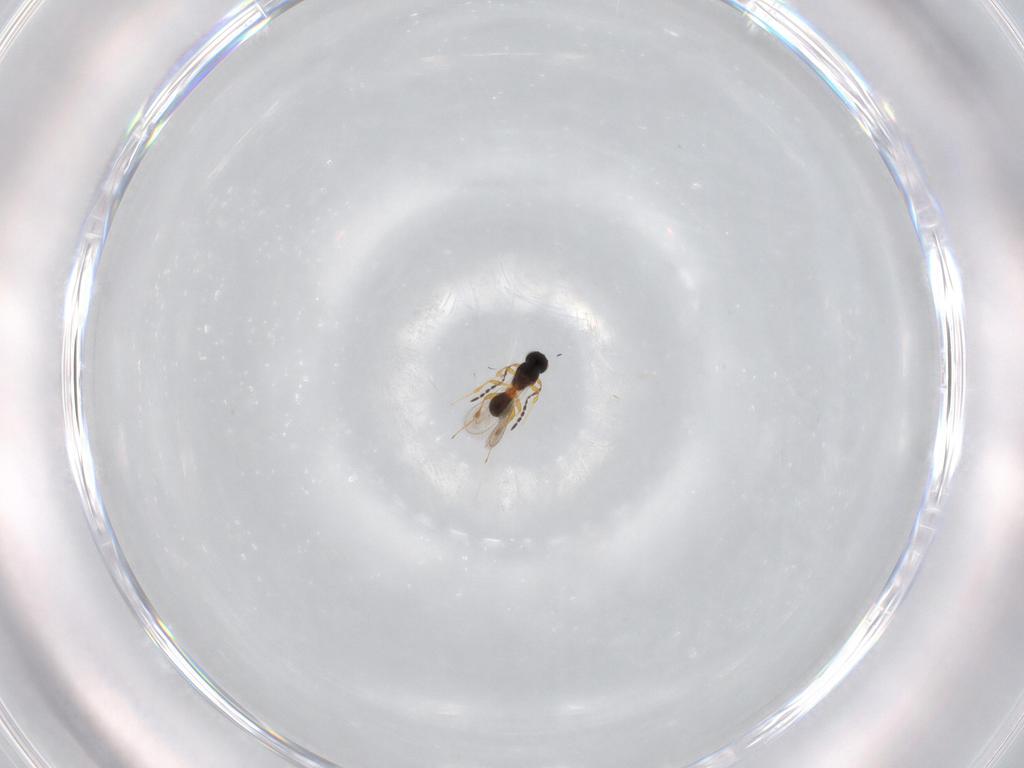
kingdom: Animalia
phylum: Arthropoda
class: Insecta
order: Hymenoptera
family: Platygastridae
